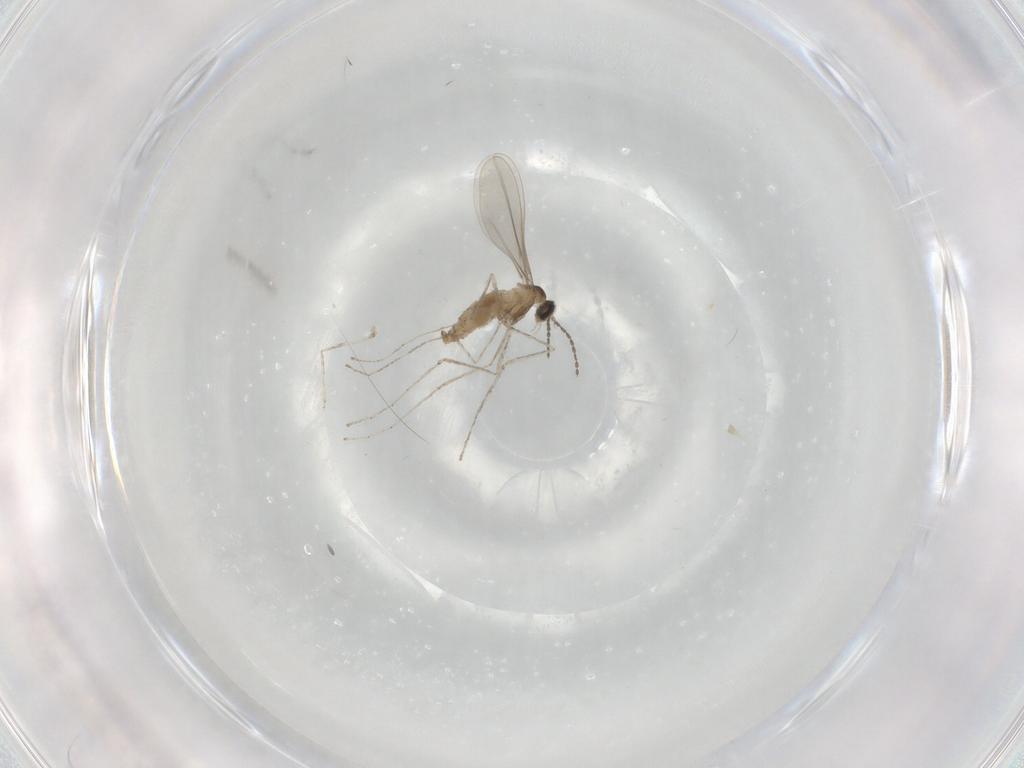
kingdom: Animalia
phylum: Arthropoda
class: Insecta
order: Diptera
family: Cecidomyiidae
